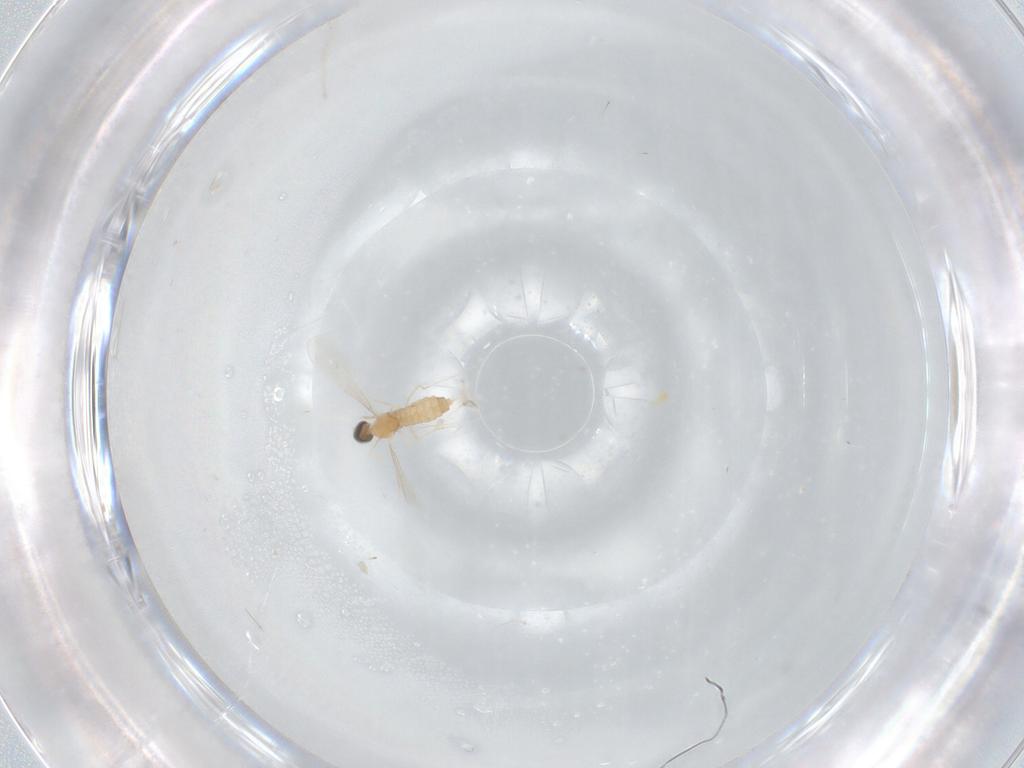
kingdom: Animalia
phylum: Arthropoda
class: Insecta
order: Diptera
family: Cecidomyiidae
